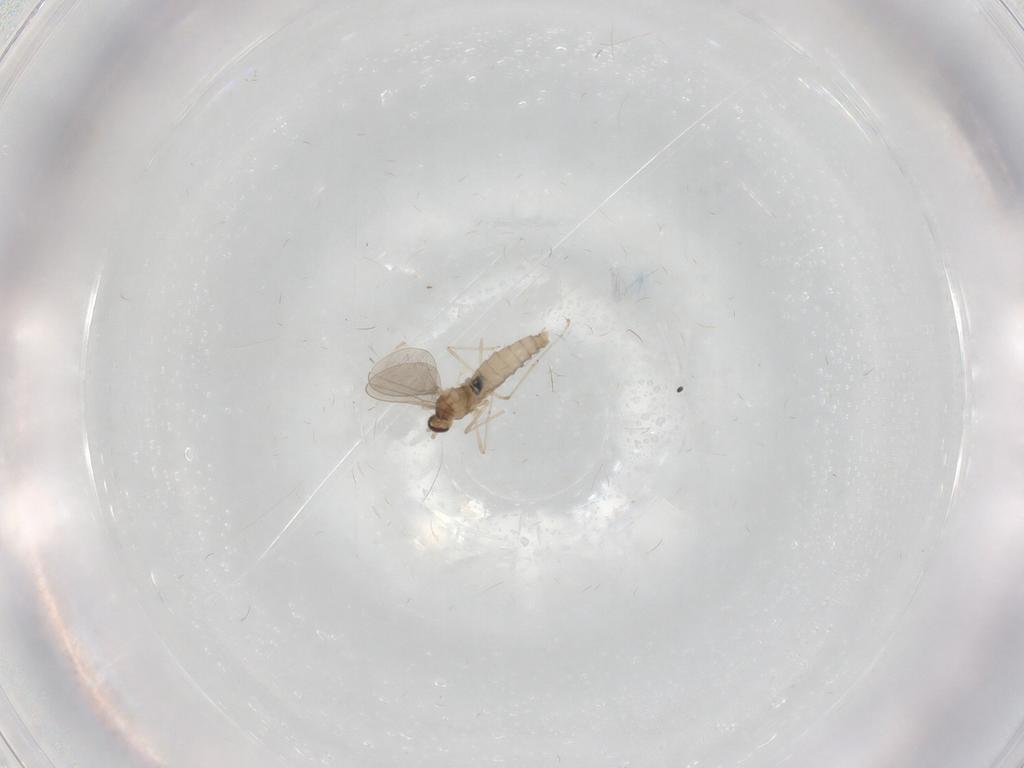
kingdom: Animalia
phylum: Arthropoda
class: Insecta
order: Diptera
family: Cecidomyiidae
